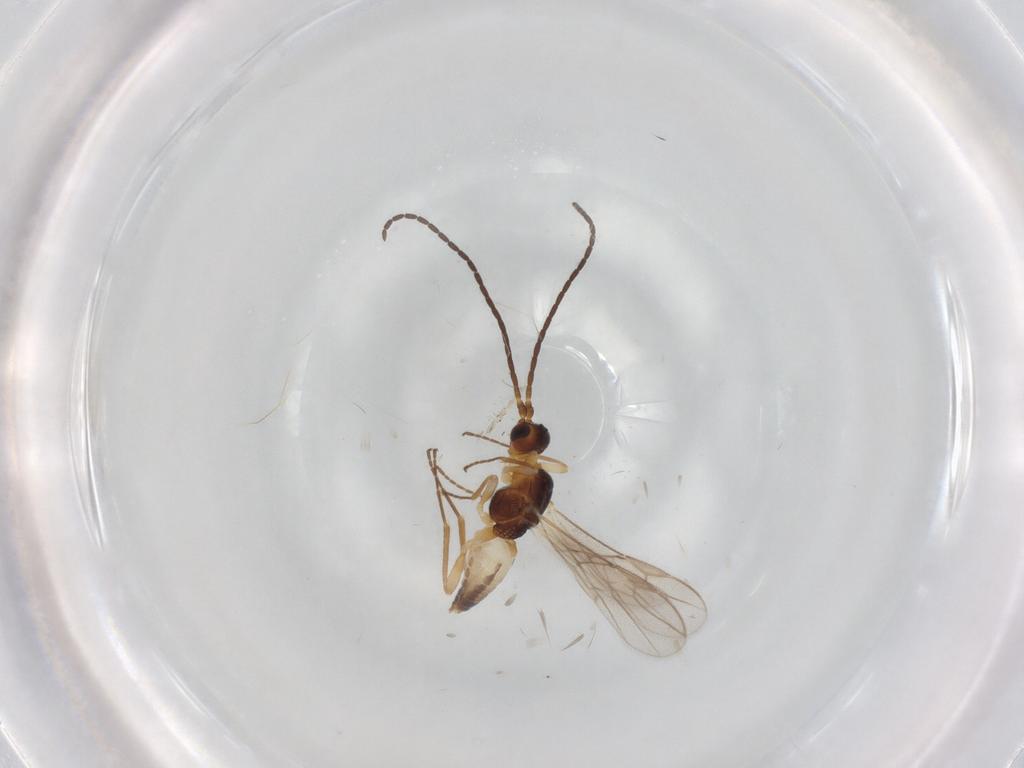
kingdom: Animalia
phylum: Arthropoda
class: Insecta
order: Hymenoptera
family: Braconidae
